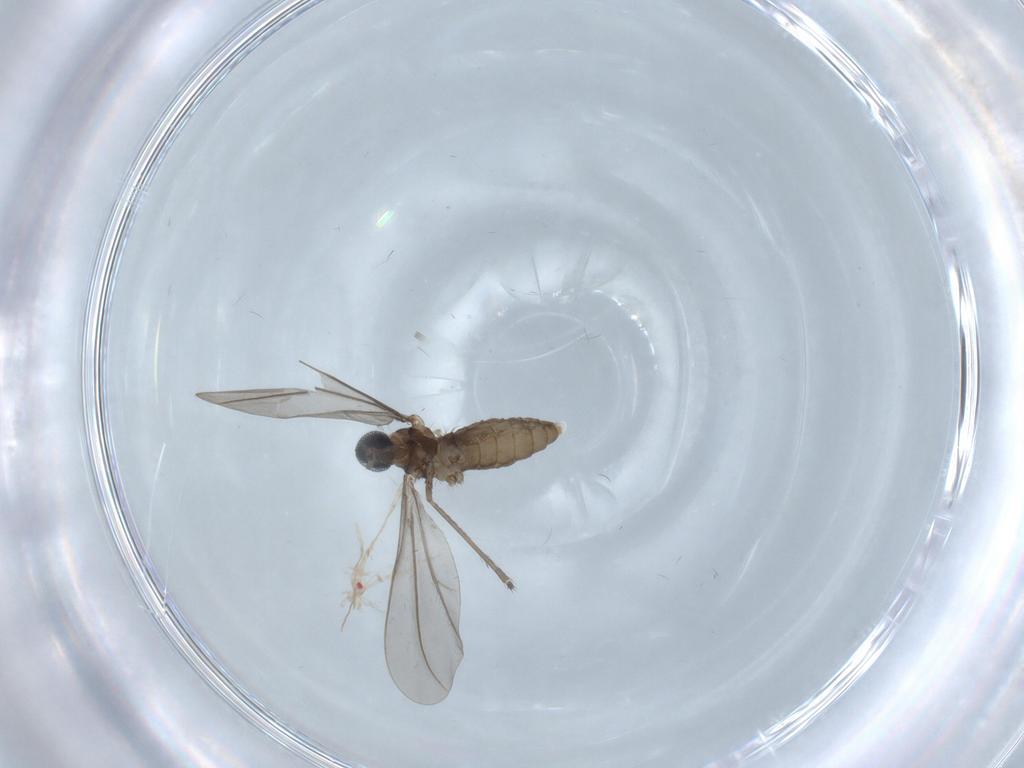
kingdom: Animalia
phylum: Arthropoda
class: Insecta
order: Diptera
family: Cecidomyiidae
